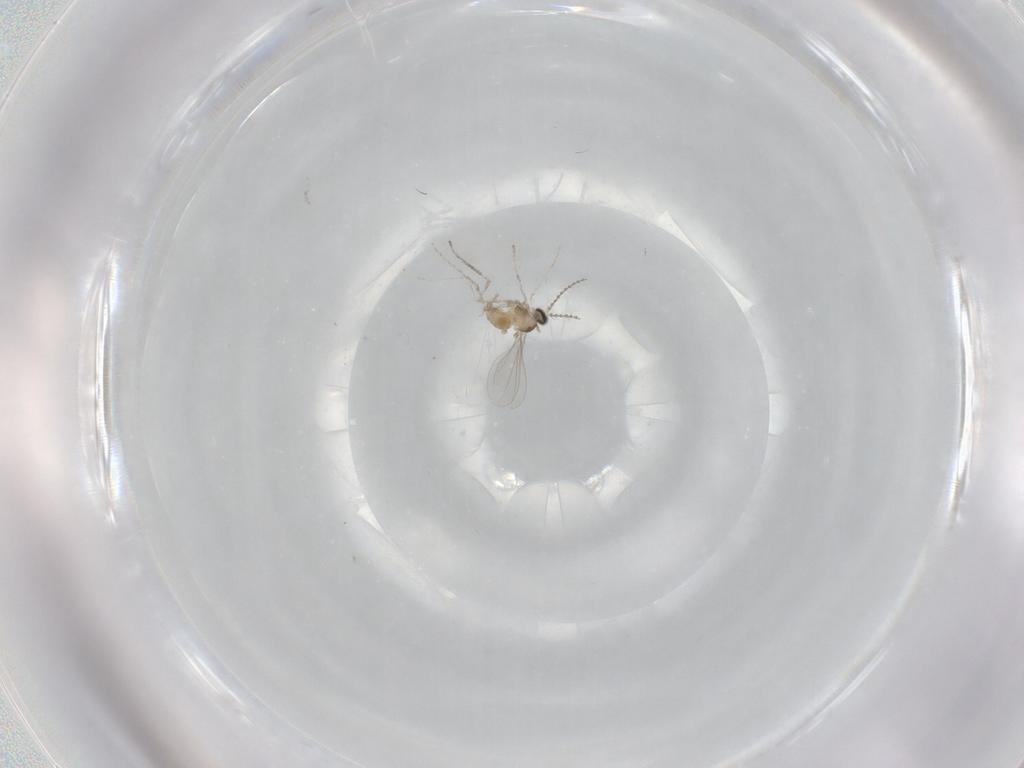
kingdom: Animalia
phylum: Arthropoda
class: Insecta
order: Diptera
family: Cecidomyiidae
